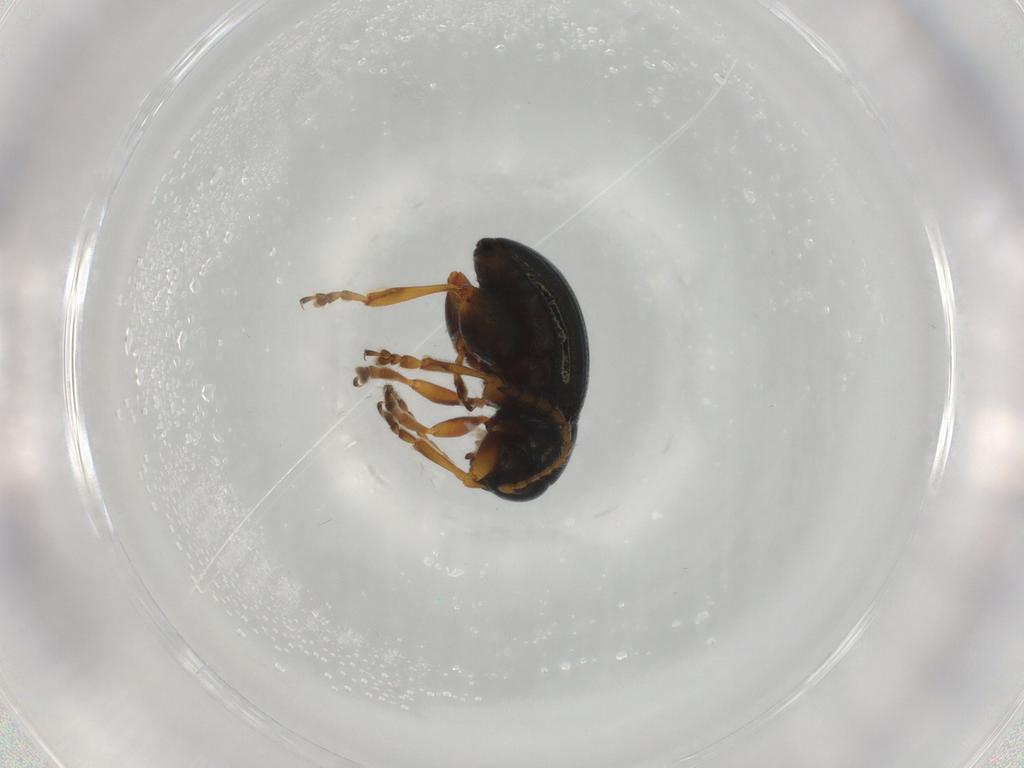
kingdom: Animalia
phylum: Arthropoda
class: Insecta
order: Coleoptera
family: Chrysomelidae
